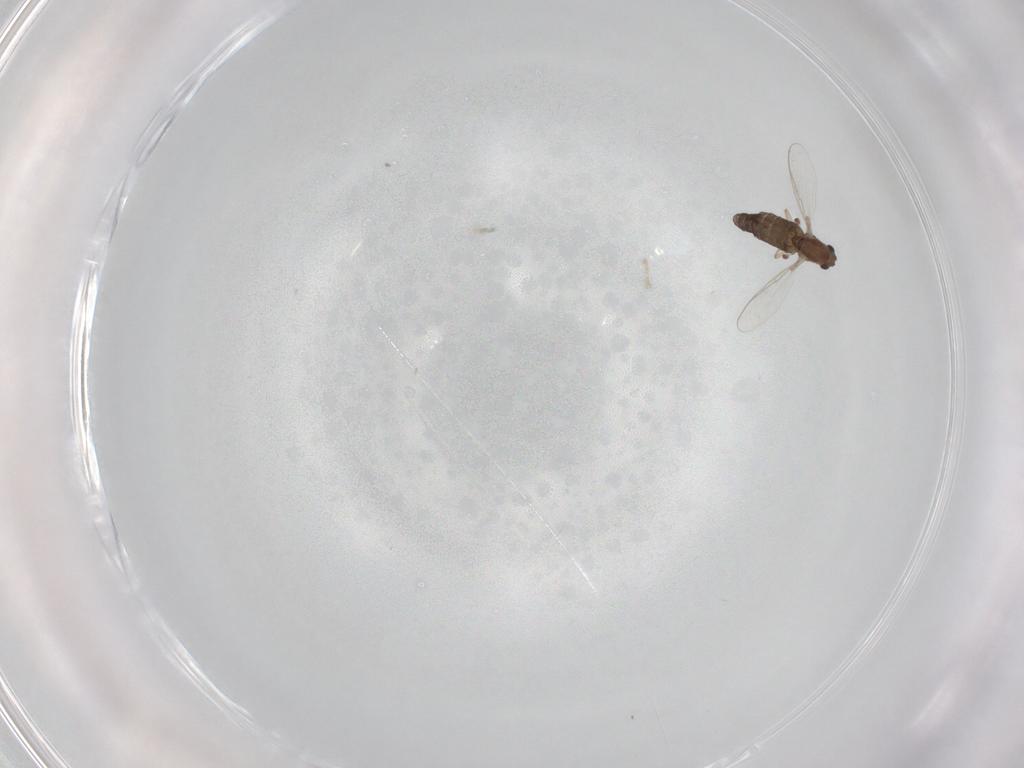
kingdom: Animalia
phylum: Arthropoda
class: Insecta
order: Diptera
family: Chironomidae
